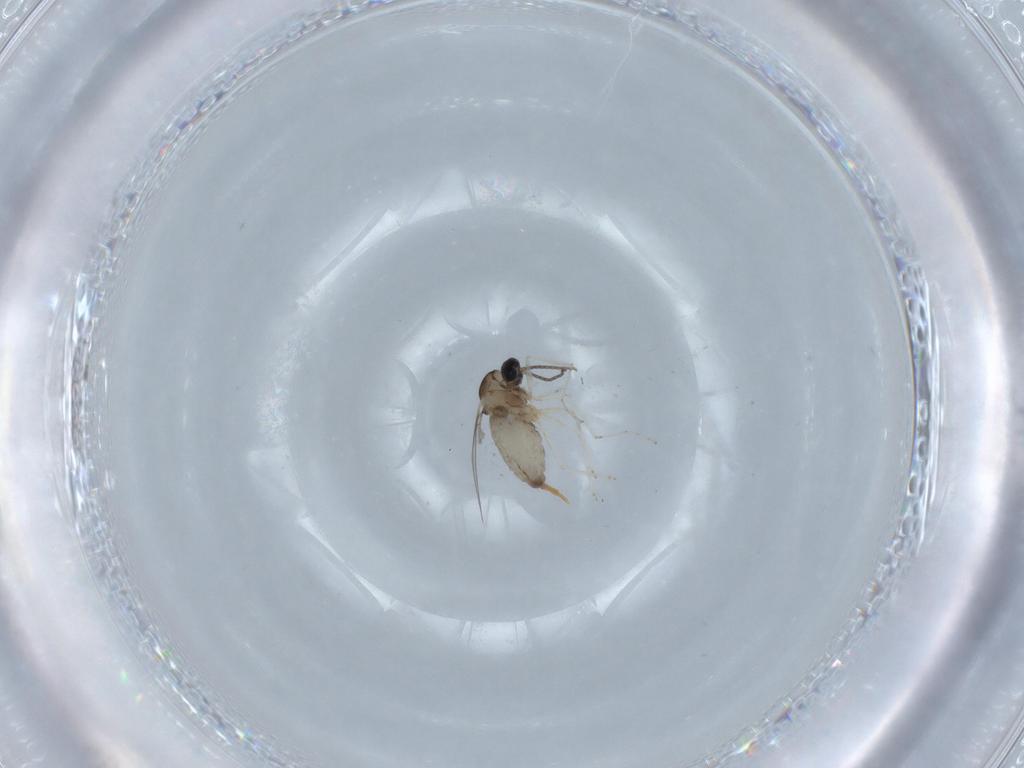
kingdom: Animalia
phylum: Arthropoda
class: Insecta
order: Diptera
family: Cecidomyiidae
